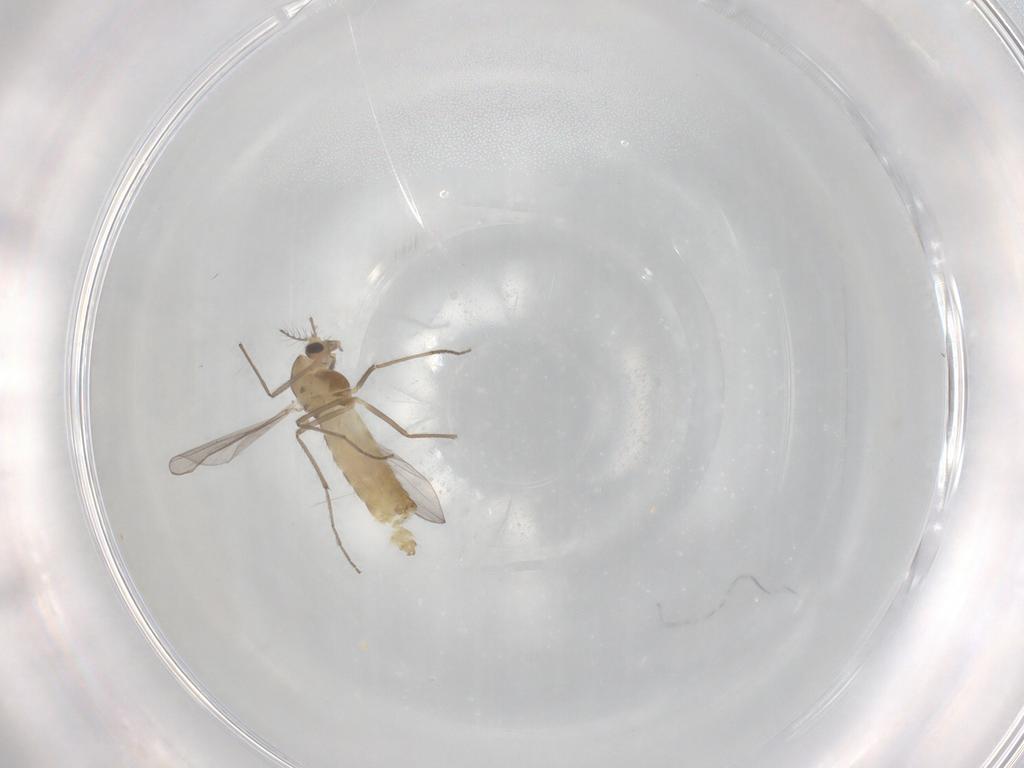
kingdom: Animalia
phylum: Arthropoda
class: Insecta
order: Diptera
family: Chironomidae
